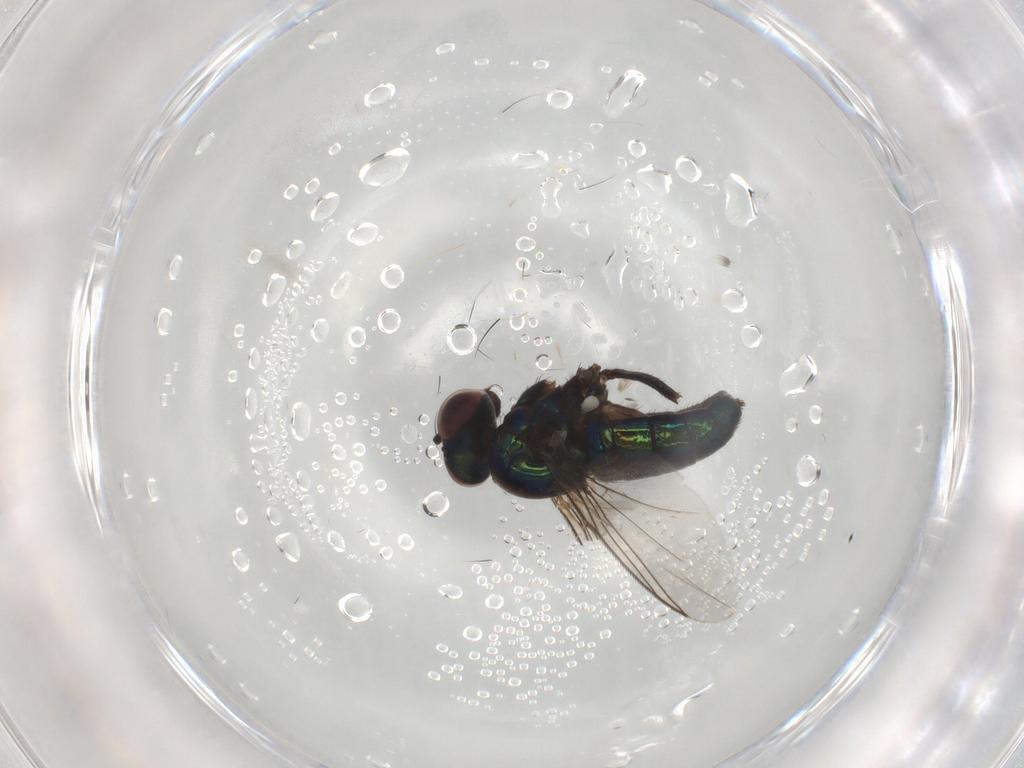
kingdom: Animalia
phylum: Arthropoda
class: Insecta
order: Diptera
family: Dolichopodidae
